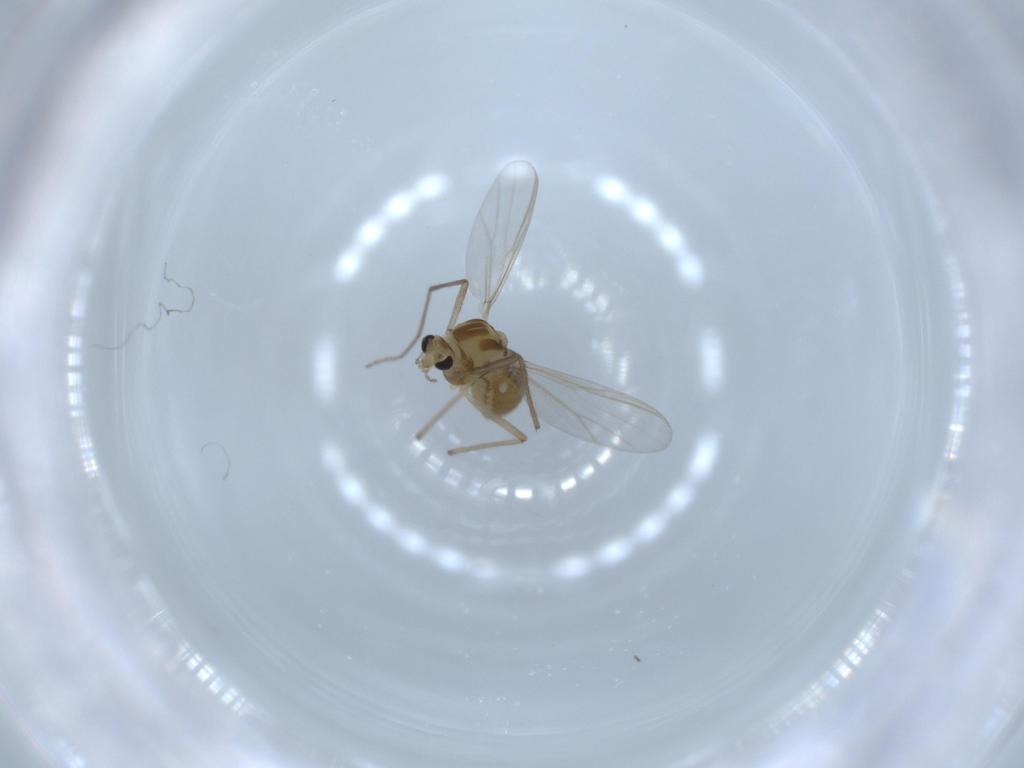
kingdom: Animalia
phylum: Arthropoda
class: Insecta
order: Diptera
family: Chironomidae
